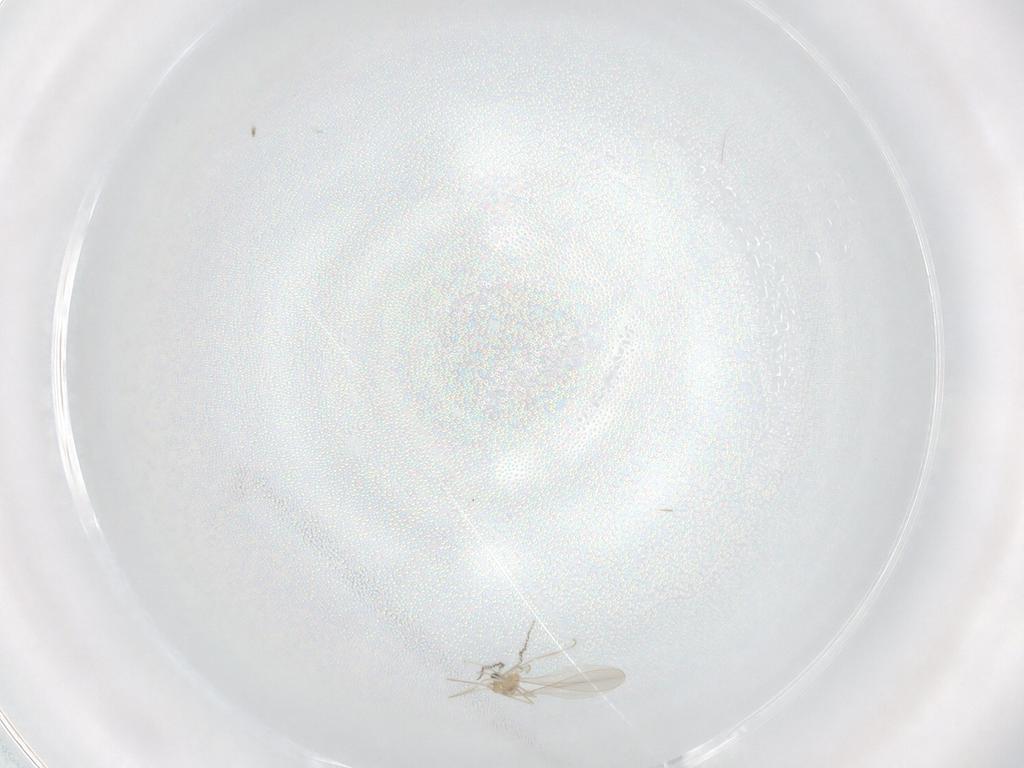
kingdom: Animalia
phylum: Arthropoda
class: Insecta
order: Diptera
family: Cecidomyiidae
